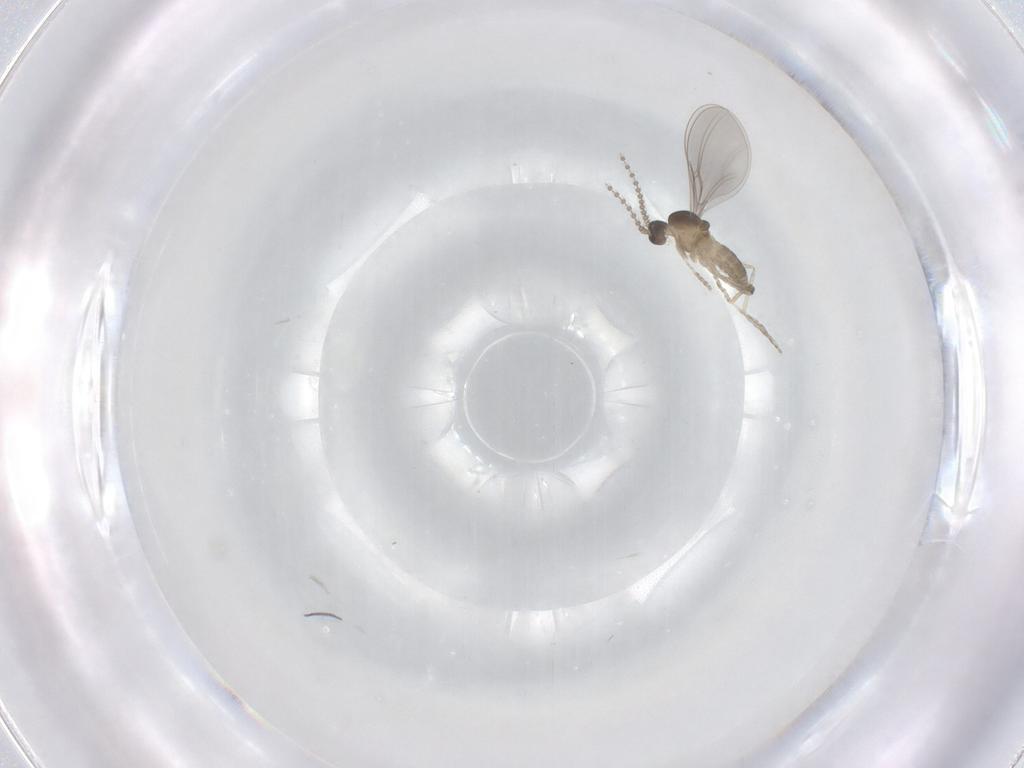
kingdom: Animalia
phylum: Arthropoda
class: Insecta
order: Diptera
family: Cecidomyiidae
